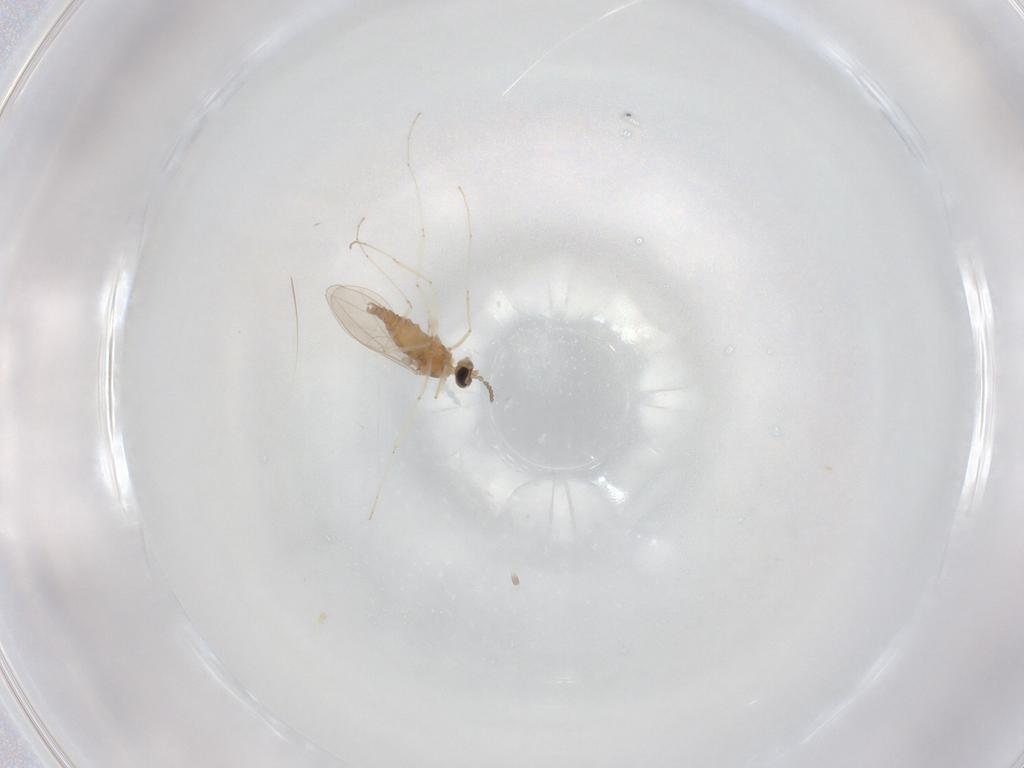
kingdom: Animalia
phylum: Arthropoda
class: Insecta
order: Diptera
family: Cecidomyiidae
